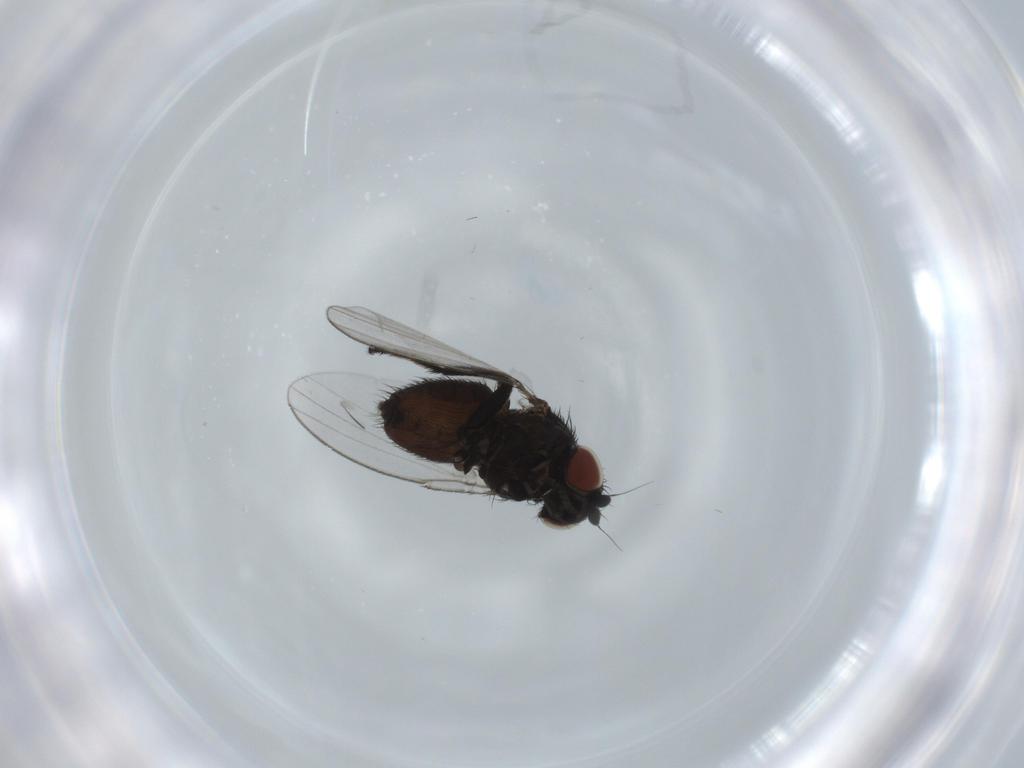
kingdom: Animalia
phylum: Arthropoda
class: Insecta
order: Diptera
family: Milichiidae
